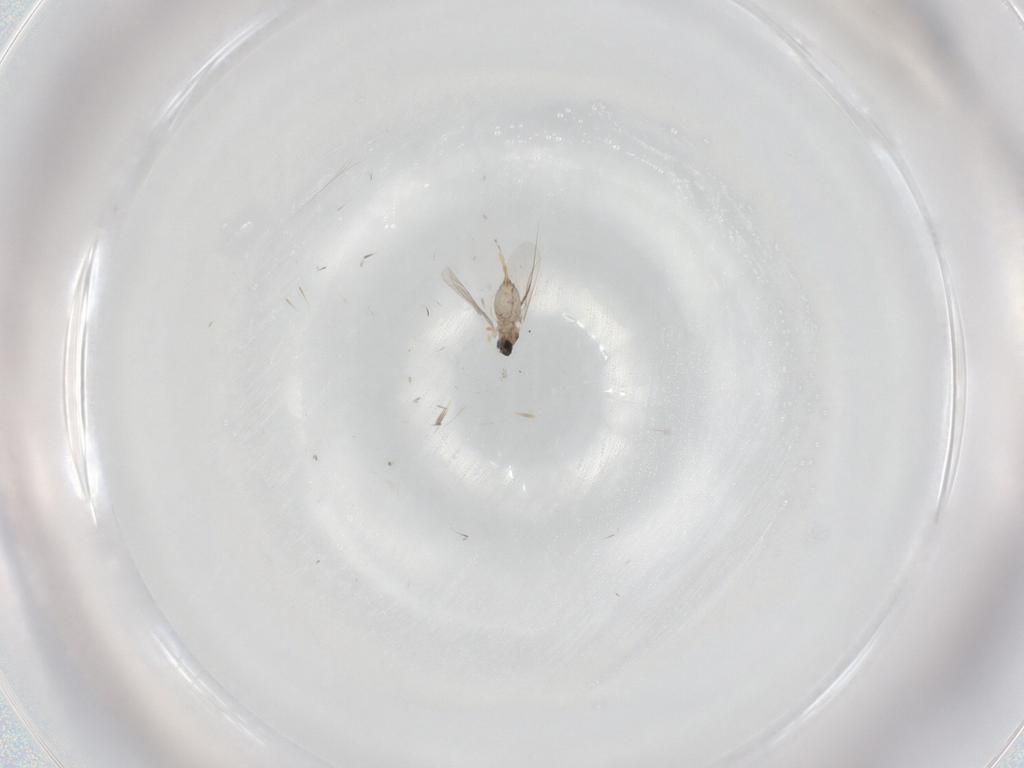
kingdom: Animalia
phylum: Arthropoda
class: Insecta
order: Diptera
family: Cecidomyiidae
